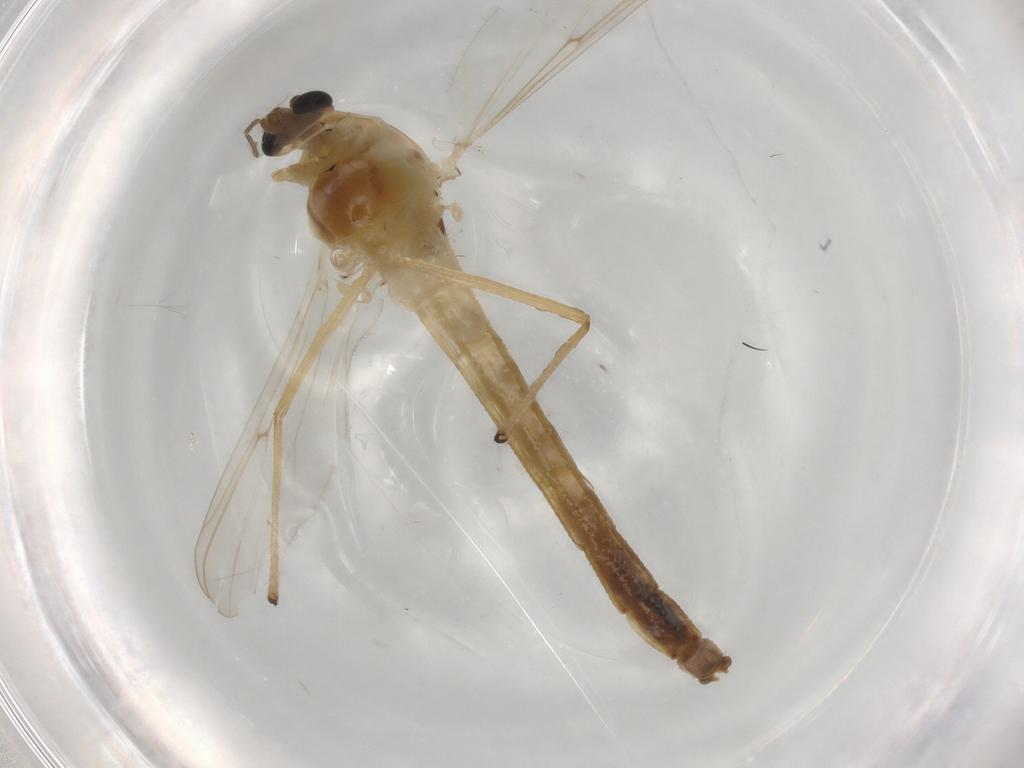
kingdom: Animalia
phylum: Arthropoda
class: Insecta
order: Diptera
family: Chironomidae
